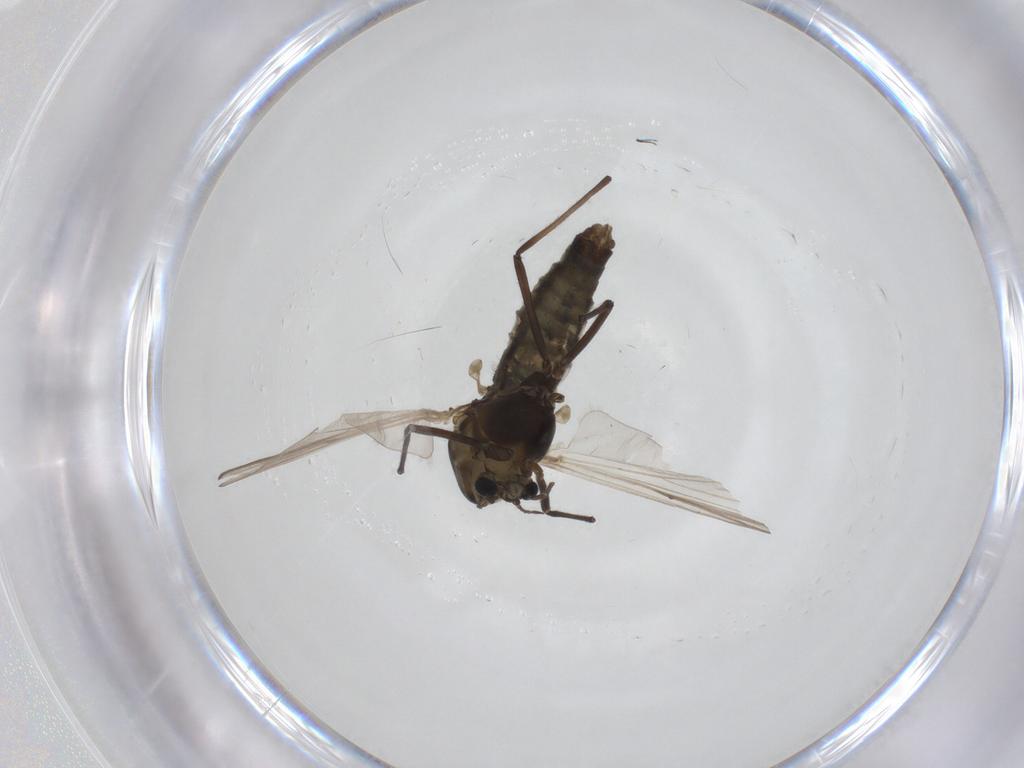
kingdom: Animalia
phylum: Arthropoda
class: Insecta
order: Diptera
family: Chironomidae
